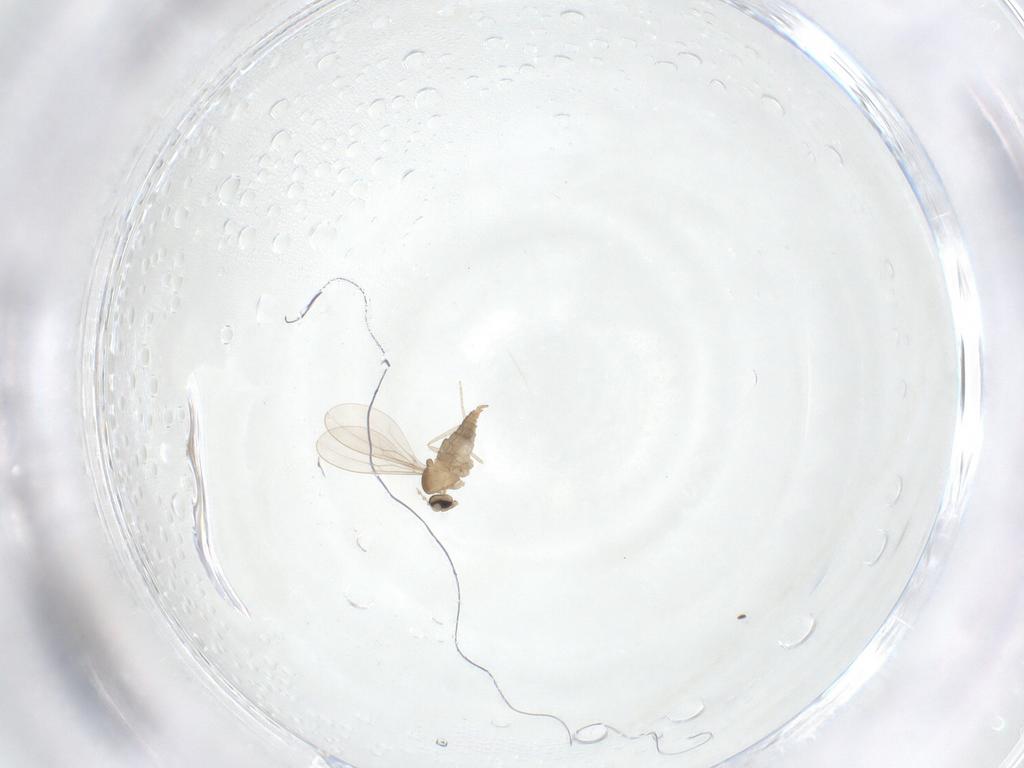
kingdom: Animalia
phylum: Arthropoda
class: Insecta
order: Diptera
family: Cecidomyiidae
